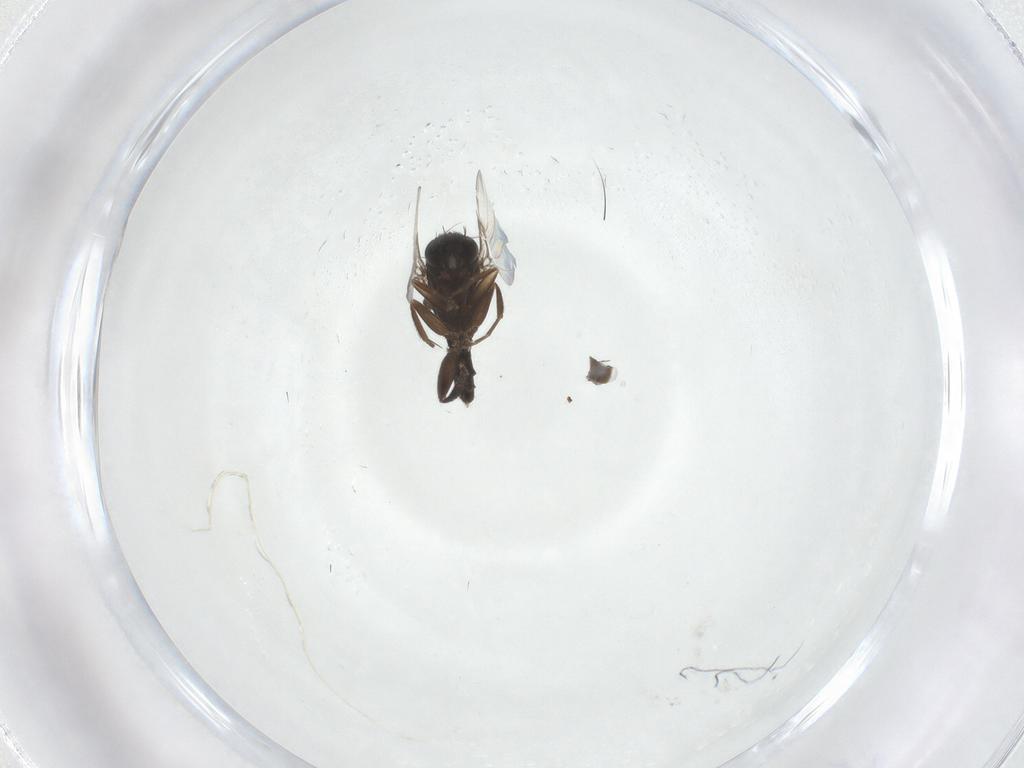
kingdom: Animalia
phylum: Arthropoda
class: Insecta
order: Diptera
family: Phoridae
